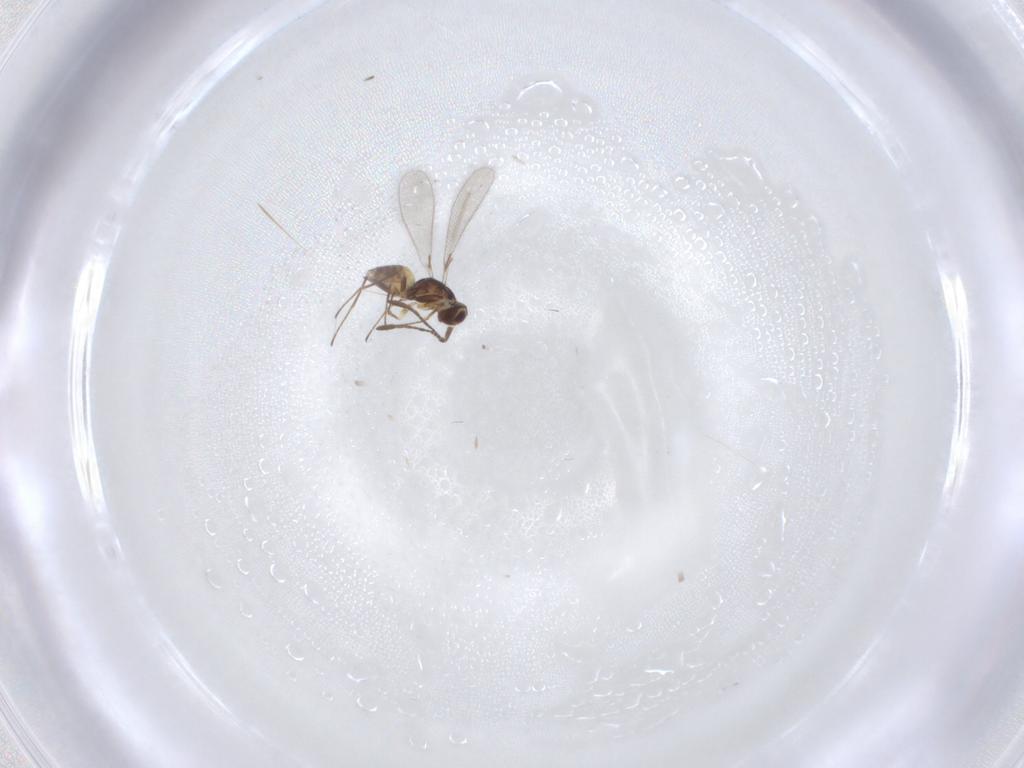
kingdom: Animalia
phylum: Arthropoda
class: Insecta
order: Hymenoptera
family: Mymaridae
